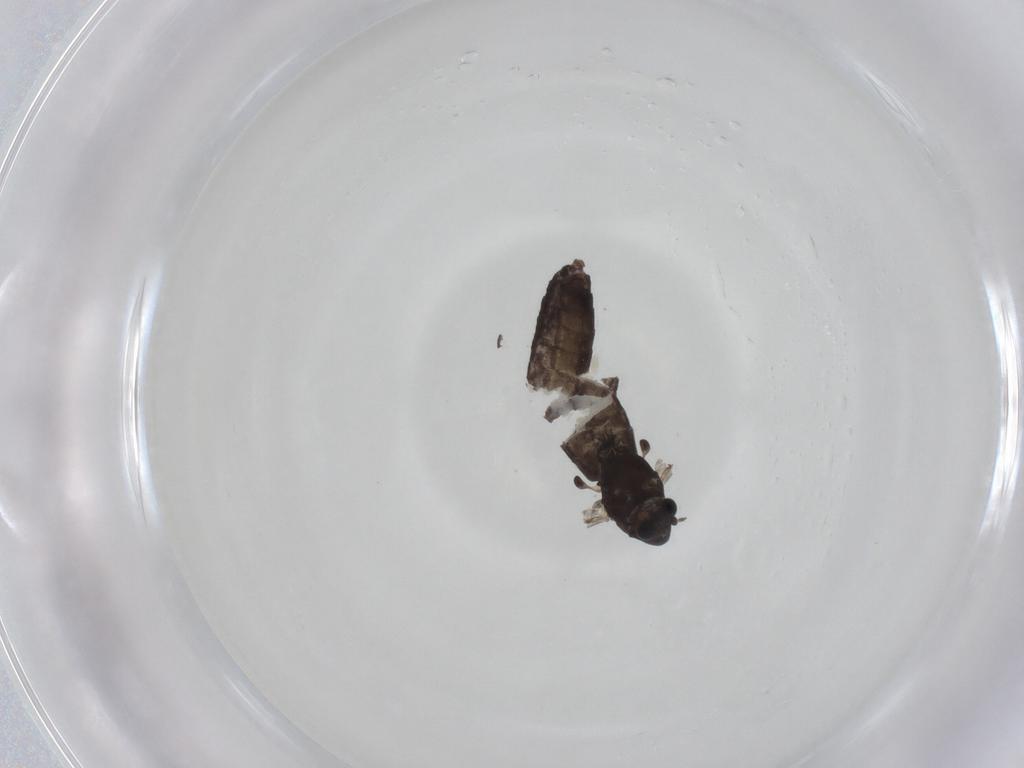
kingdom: Animalia
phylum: Arthropoda
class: Insecta
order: Diptera
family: Chironomidae
